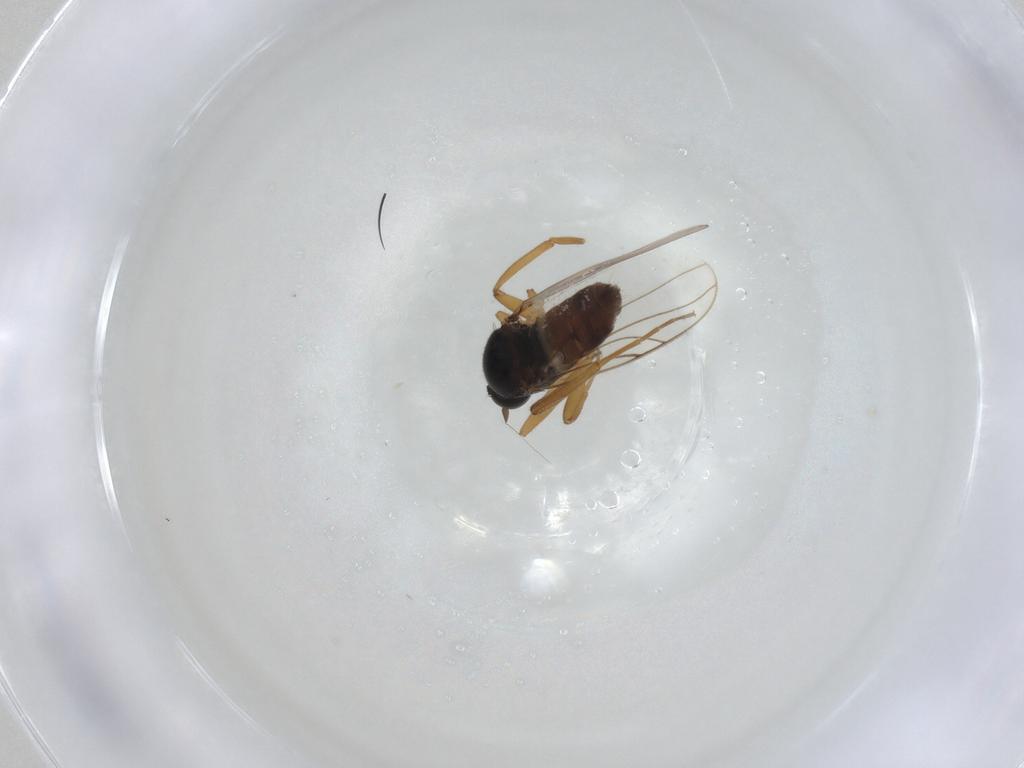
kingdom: Animalia
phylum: Arthropoda
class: Insecta
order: Diptera
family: Hybotidae
